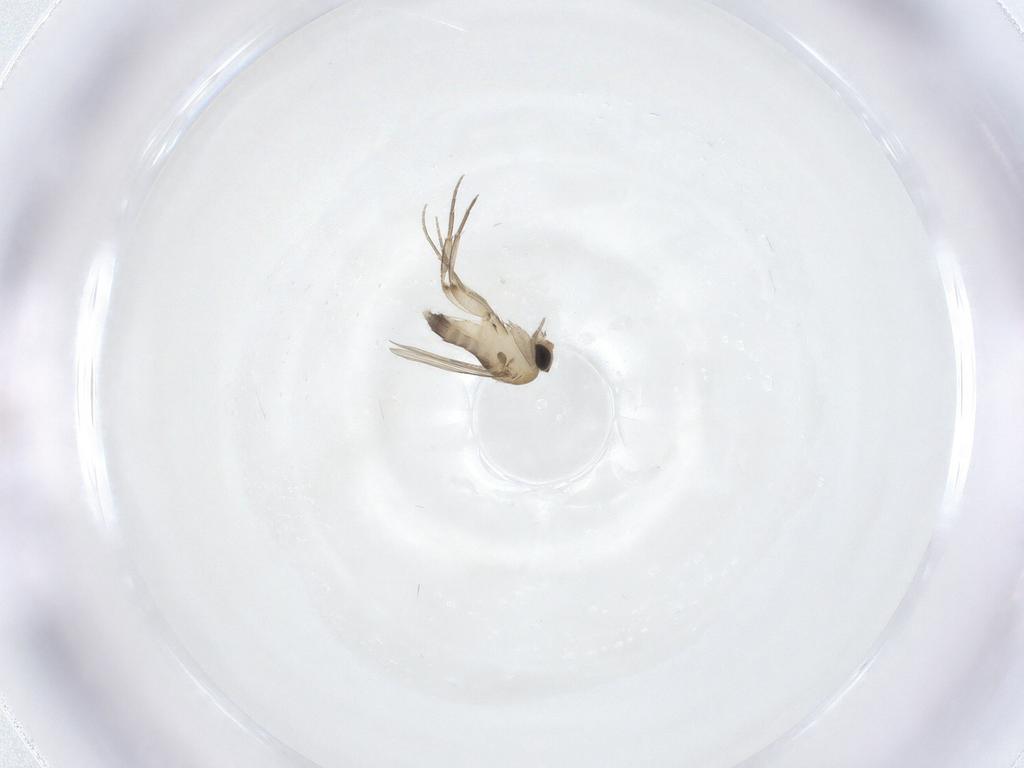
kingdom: Animalia
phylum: Arthropoda
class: Insecta
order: Diptera
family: Phoridae
